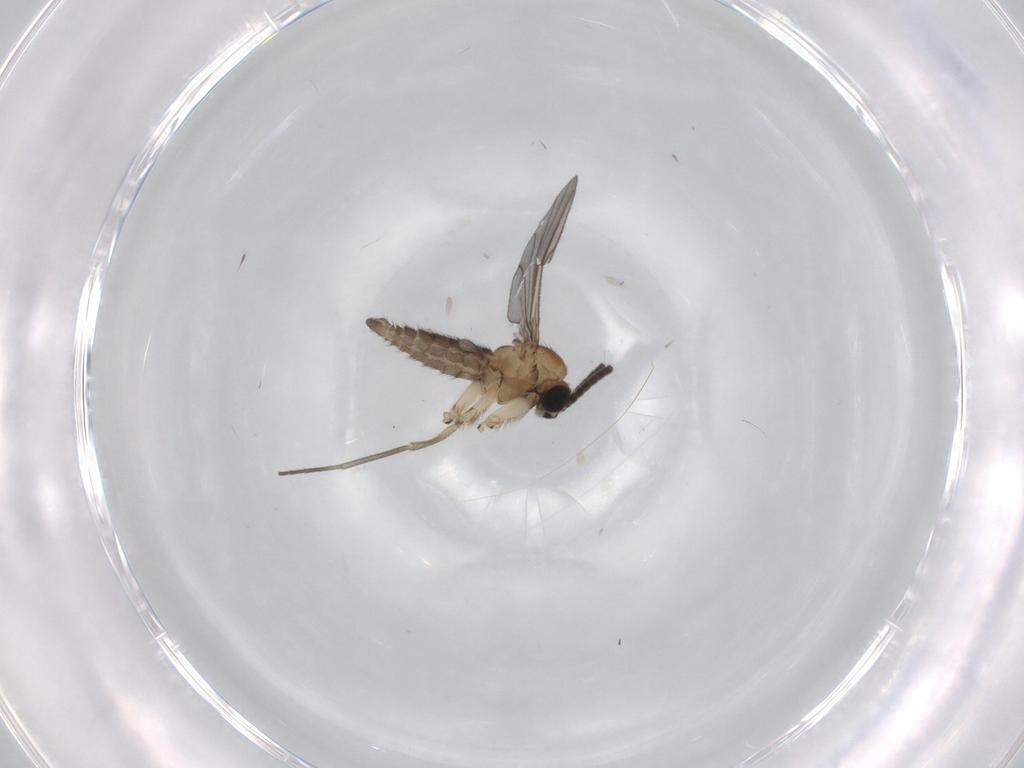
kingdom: Animalia
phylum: Arthropoda
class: Insecta
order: Diptera
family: Sciaridae
